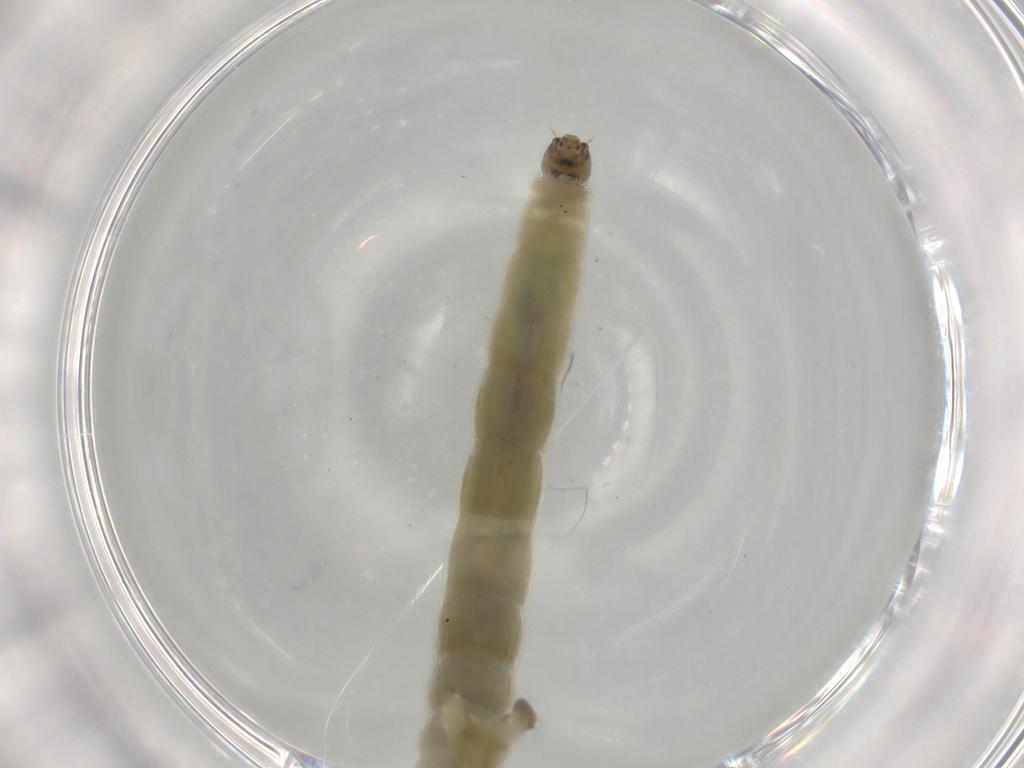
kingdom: Animalia
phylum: Arthropoda
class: Insecta
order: Diptera
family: Chironomidae
